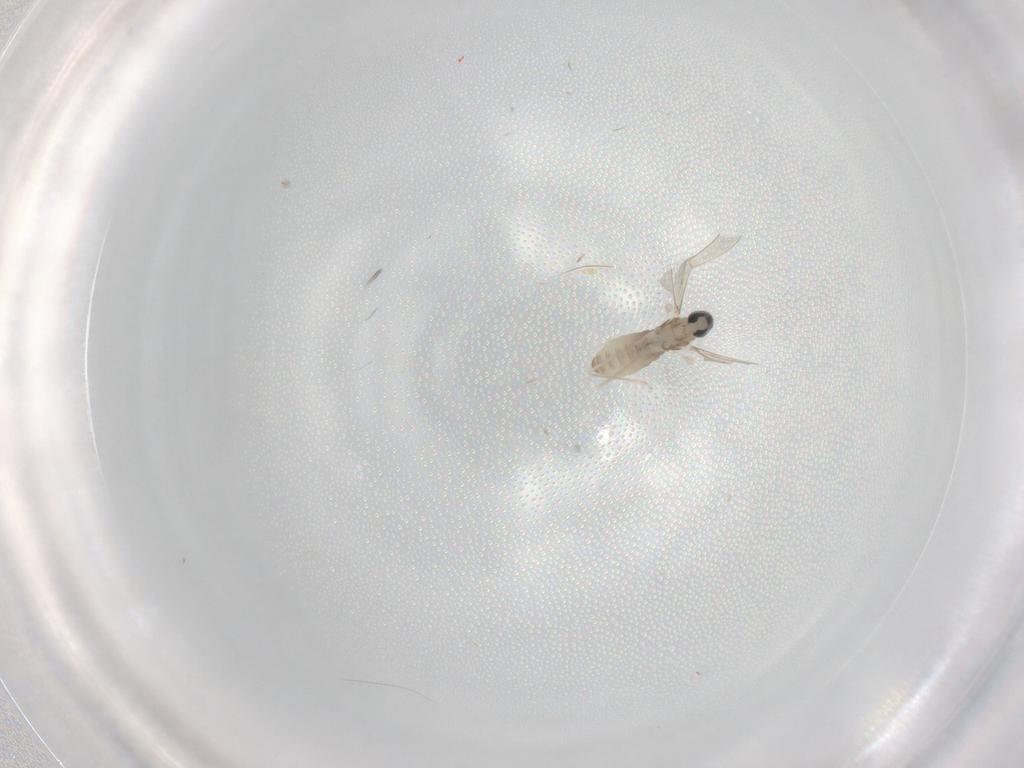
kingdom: Animalia
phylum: Arthropoda
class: Insecta
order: Diptera
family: Cecidomyiidae
